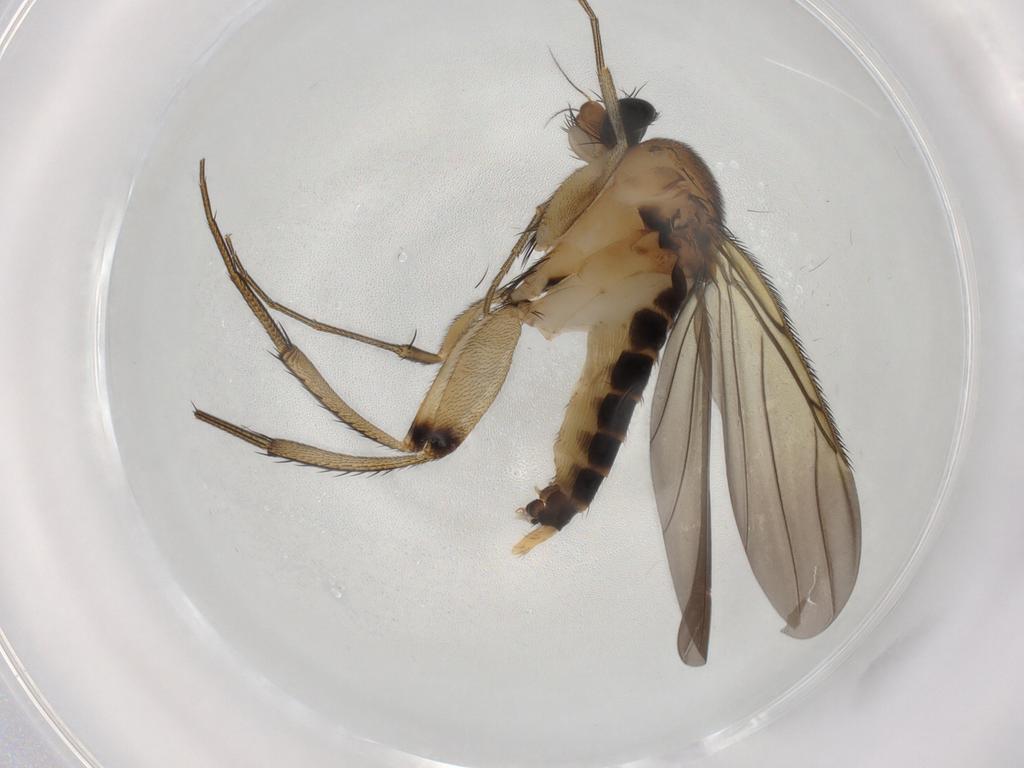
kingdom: Animalia
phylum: Arthropoda
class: Insecta
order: Diptera
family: Phoridae
